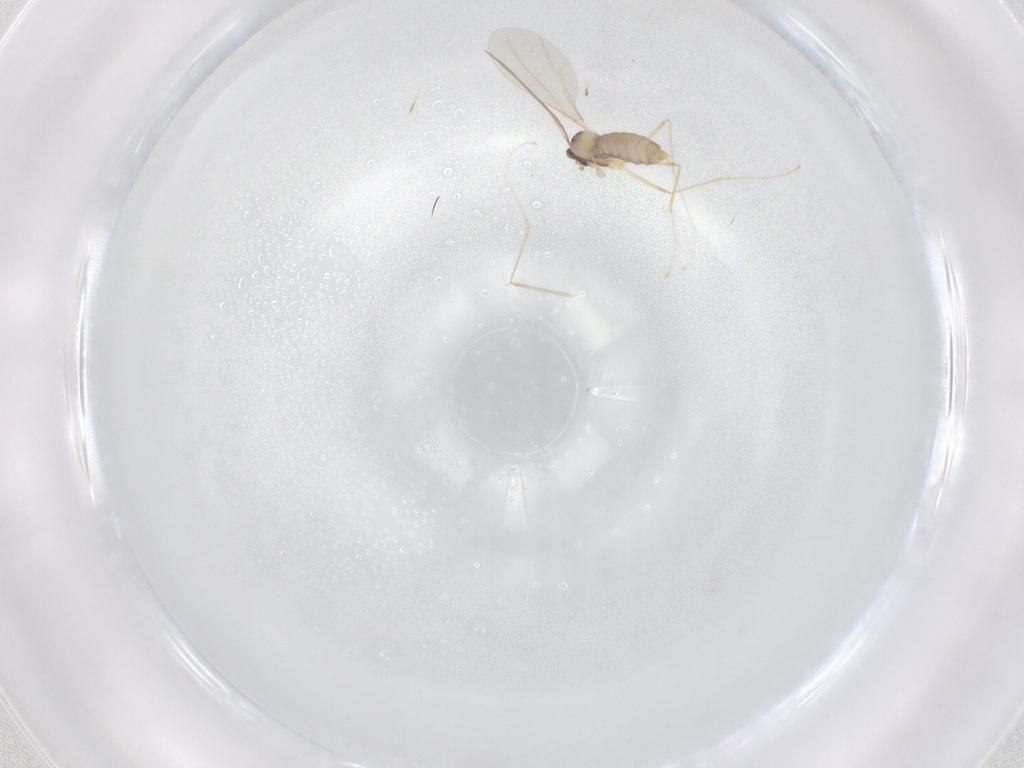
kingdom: Animalia
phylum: Arthropoda
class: Insecta
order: Diptera
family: Cecidomyiidae
